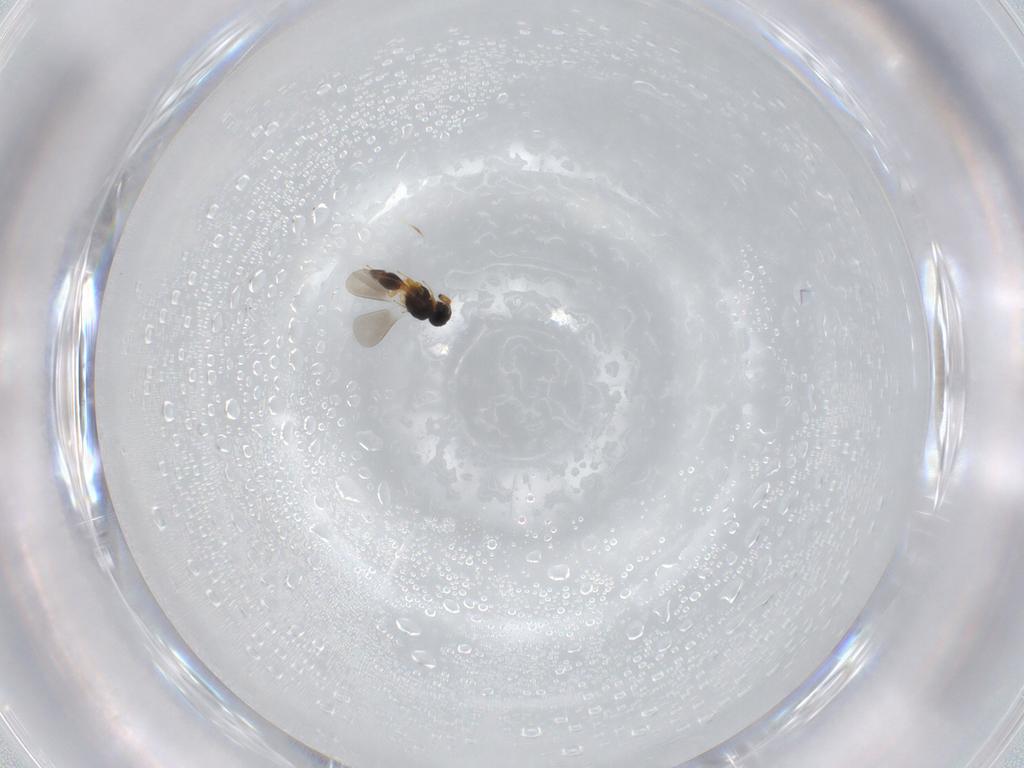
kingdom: Animalia
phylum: Arthropoda
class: Insecta
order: Hymenoptera
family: Scelionidae
